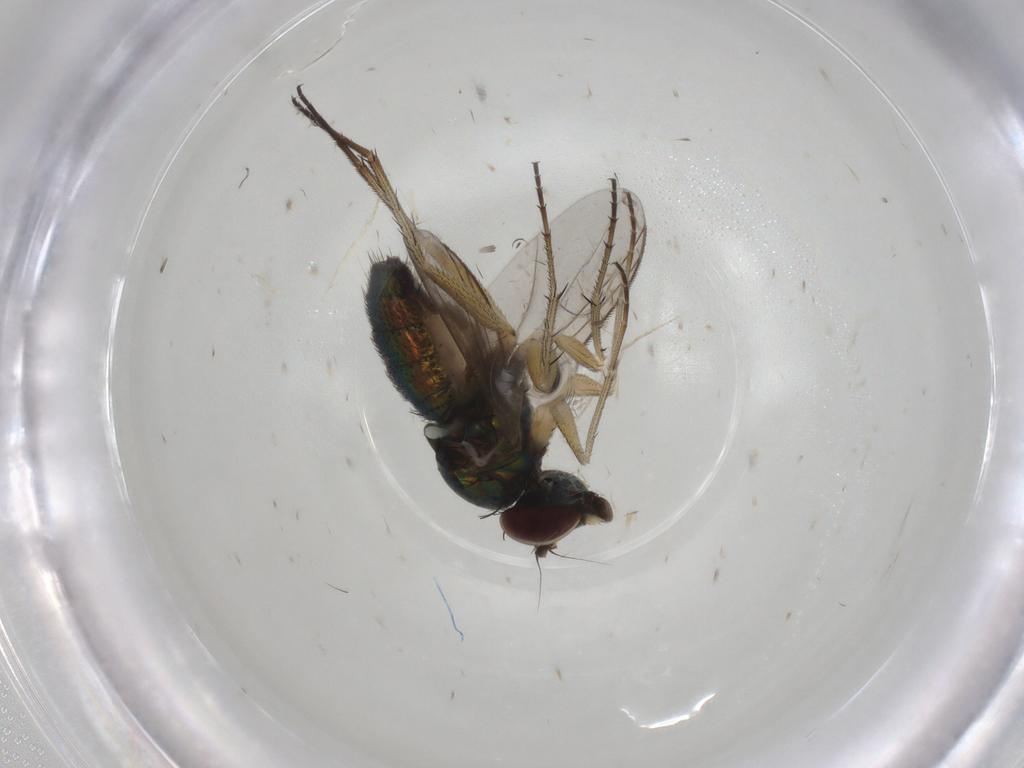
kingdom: Animalia
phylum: Arthropoda
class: Insecta
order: Diptera
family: Dolichopodidae
